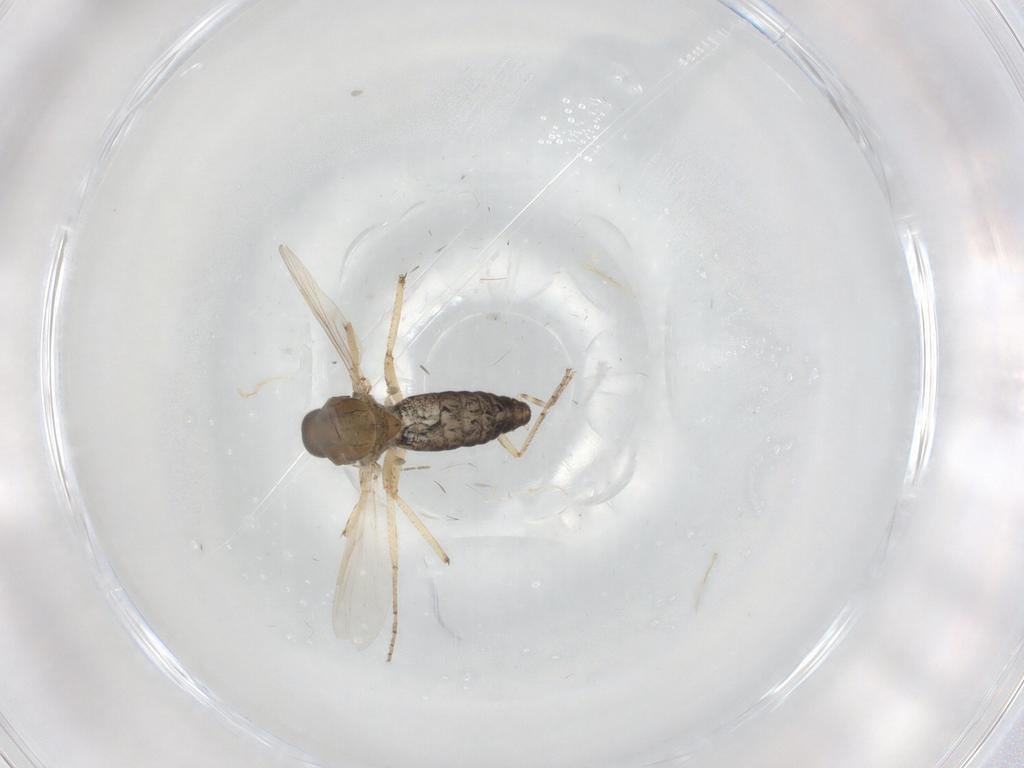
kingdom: Animalia
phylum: Arthropoda
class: Insecta
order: Diptera
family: Ceratopogonidae
